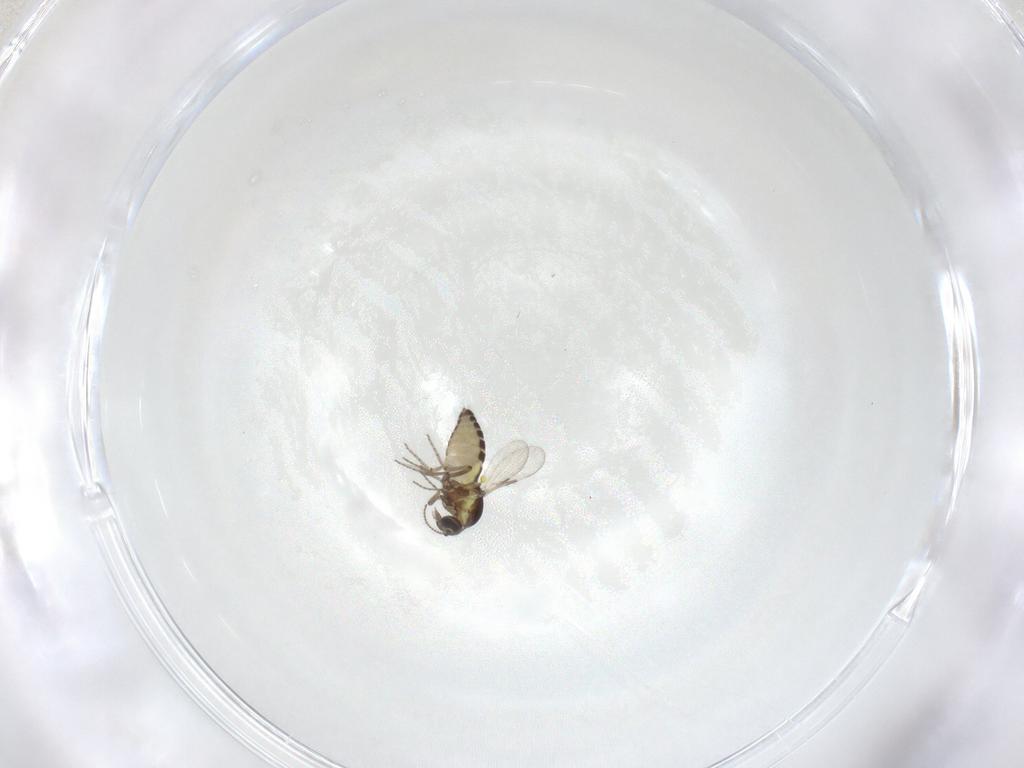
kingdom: Animalia
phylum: Arthropoda
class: Insecta
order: Diptera
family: Ceratopogonidae
